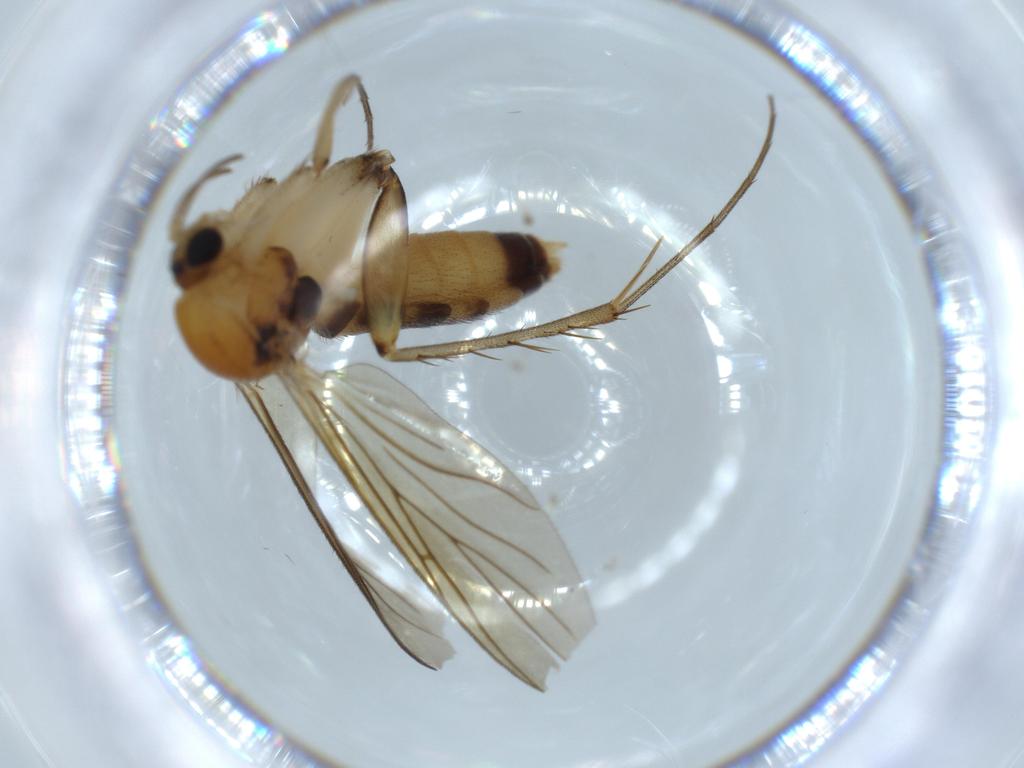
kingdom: Animalia
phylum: Arthropoda
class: Insecta
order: Diptera
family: Mycetophilidae
